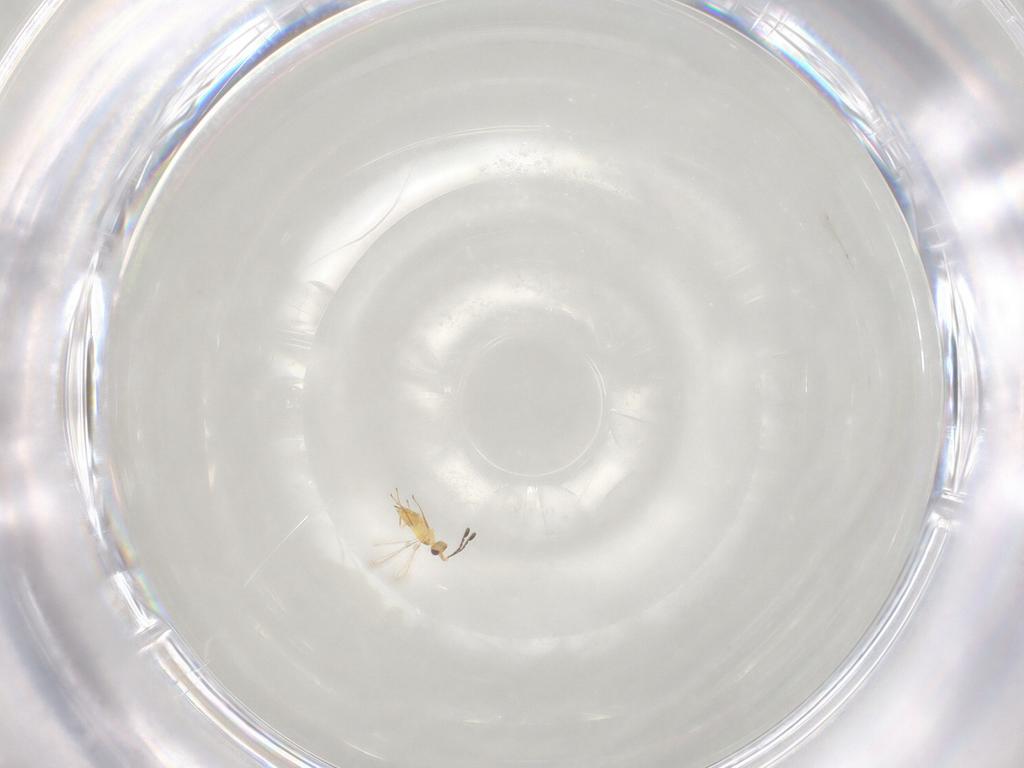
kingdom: Animalia
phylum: Arthropoda
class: Insecta
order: Hymenoptera
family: Mymaridae
